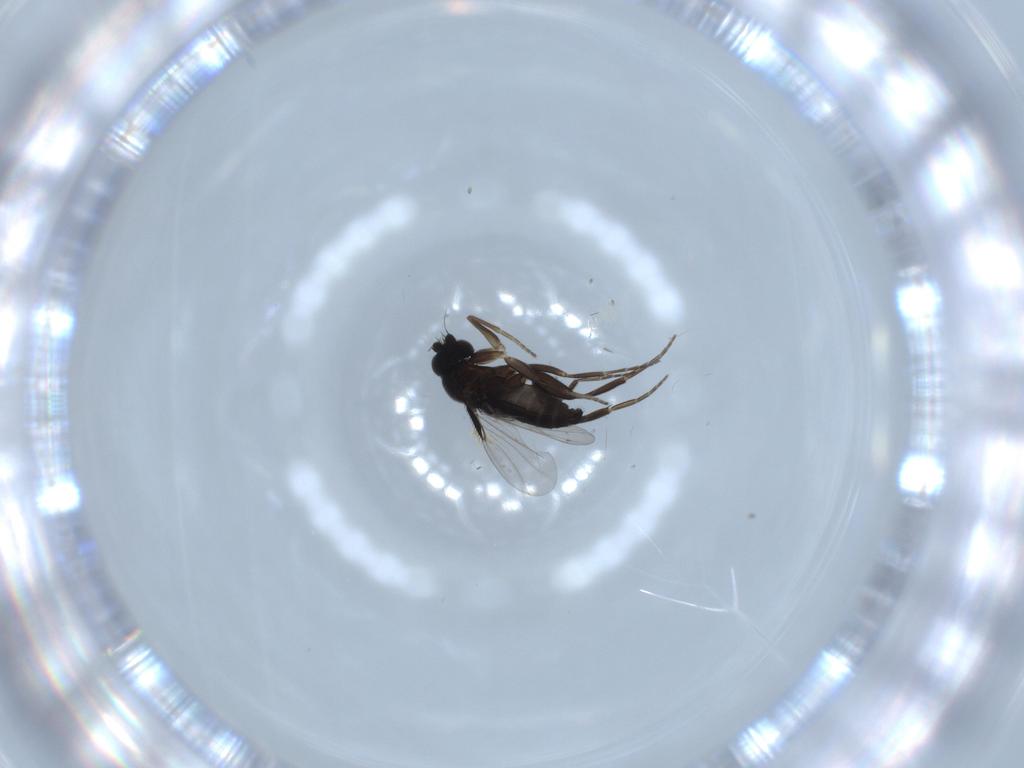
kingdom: Animalia
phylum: Arthropoda
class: Insecta
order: Diptera
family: Phoridae
